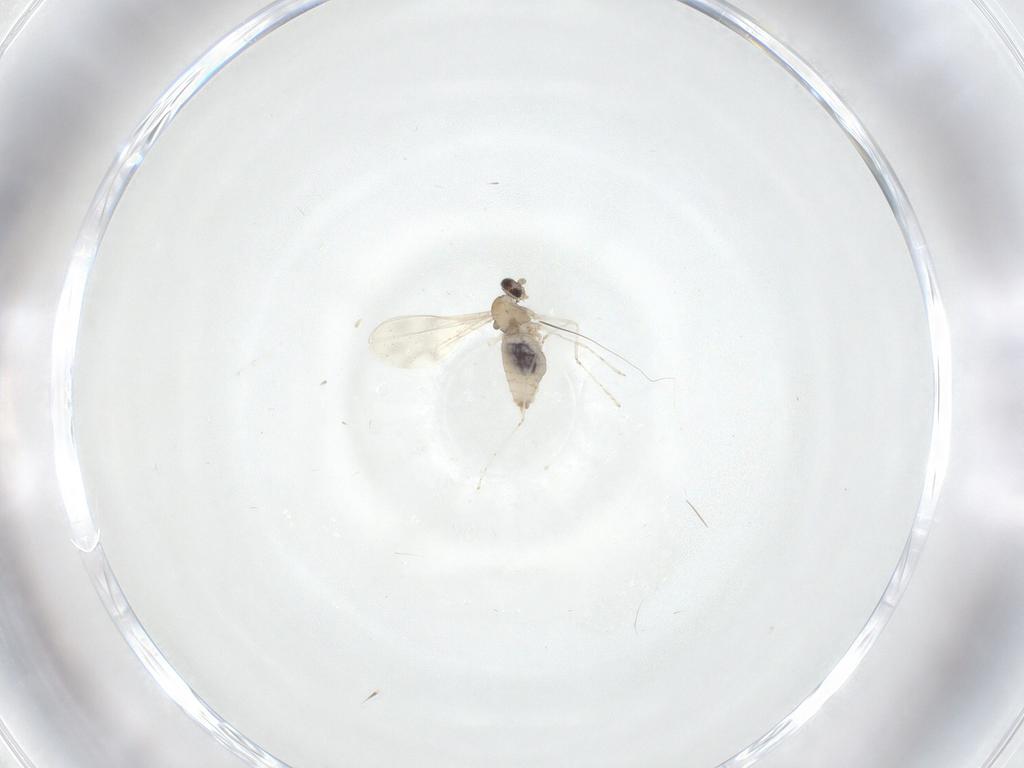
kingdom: Animalia
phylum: Arthropoda
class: Insecta
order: Diptera
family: Cecidomyiidae
